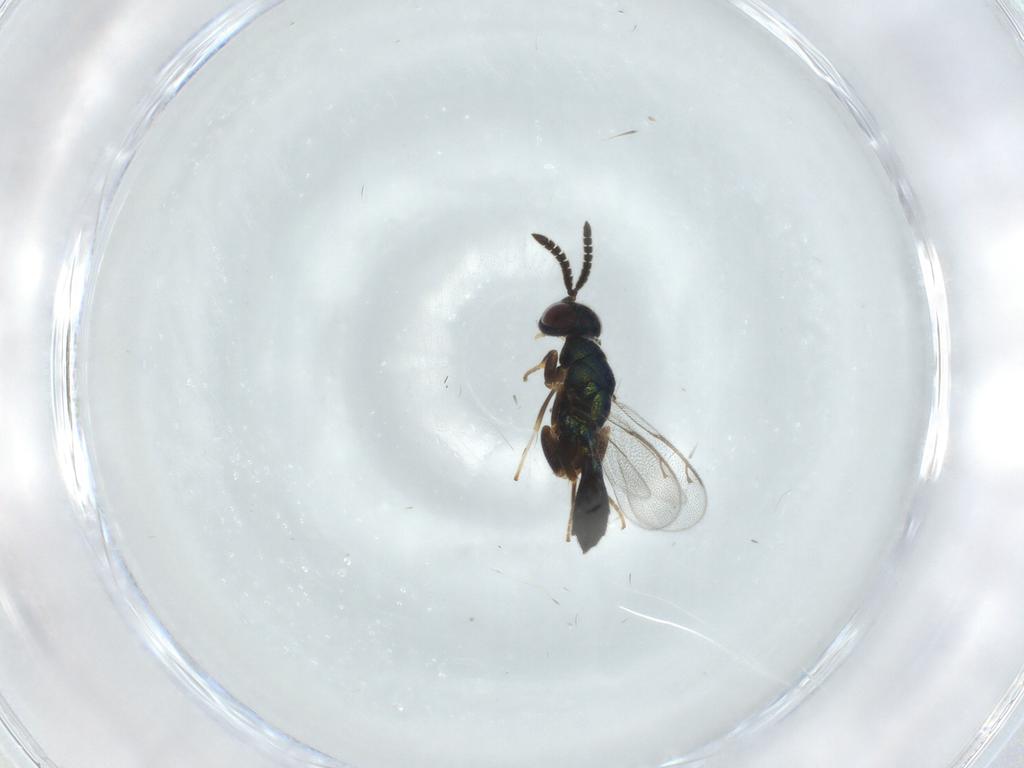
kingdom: Animalia
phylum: Arthropoda
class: Insecta
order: Hymenoptera
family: Cleonyminae
